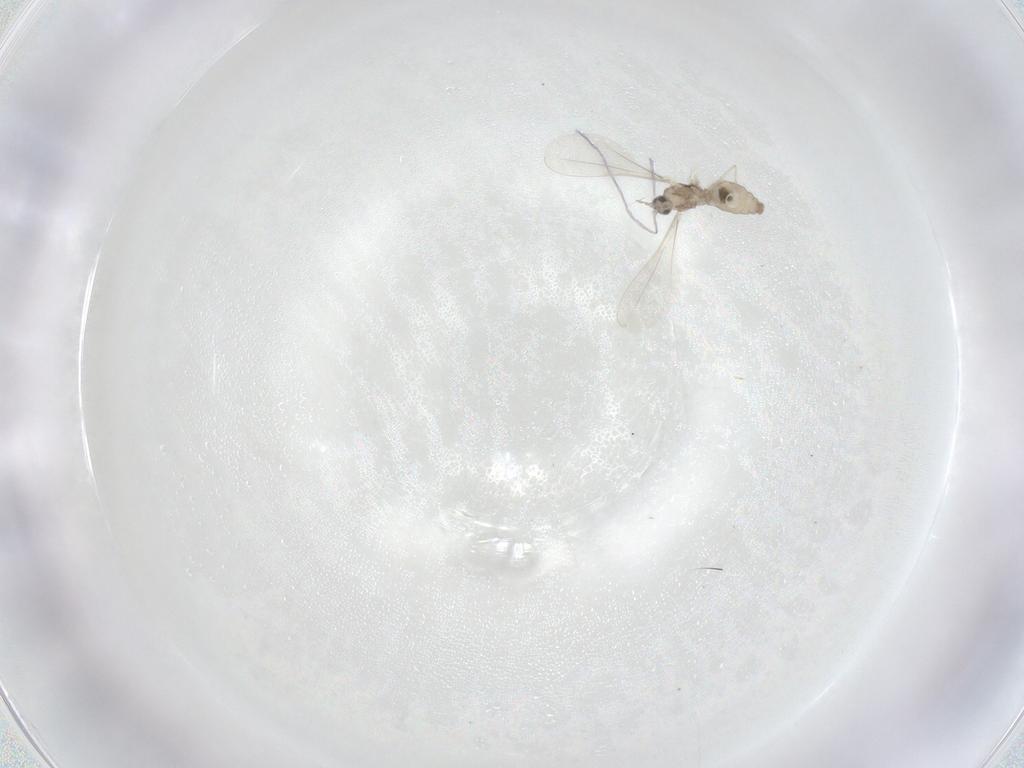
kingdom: Animalia
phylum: Arthropoda
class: Insecta
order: Diptera
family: Cecidomyiidae
